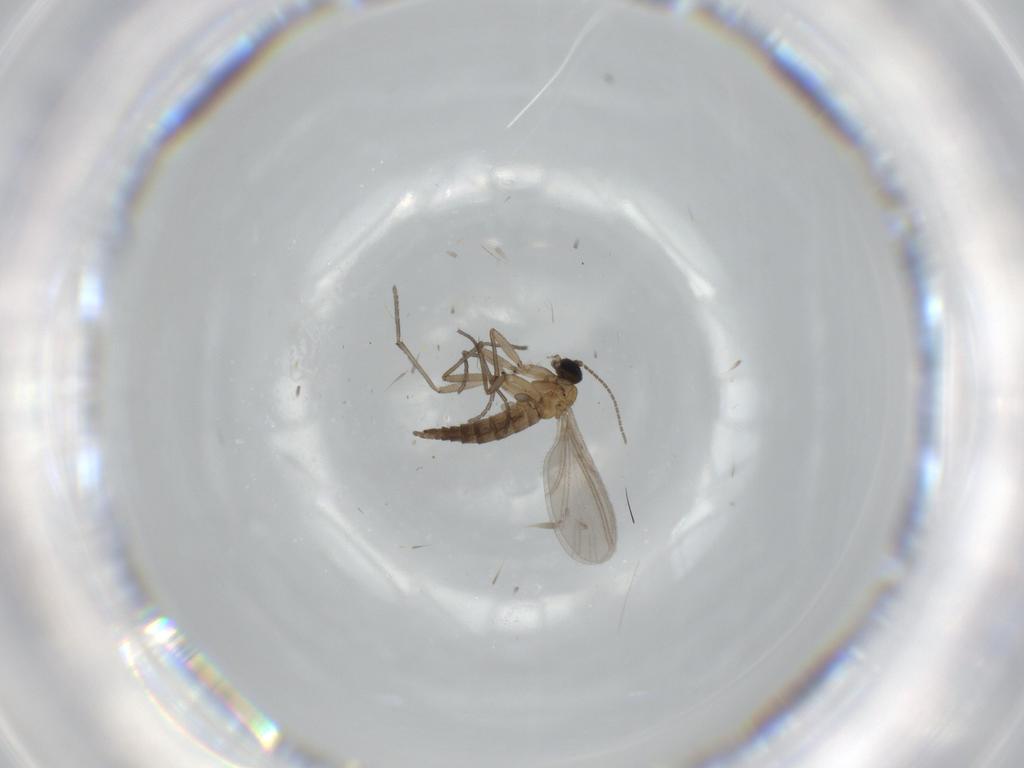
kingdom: Animalia
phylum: Arthropoda
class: Insecta
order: Diptera
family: Sciaridae
